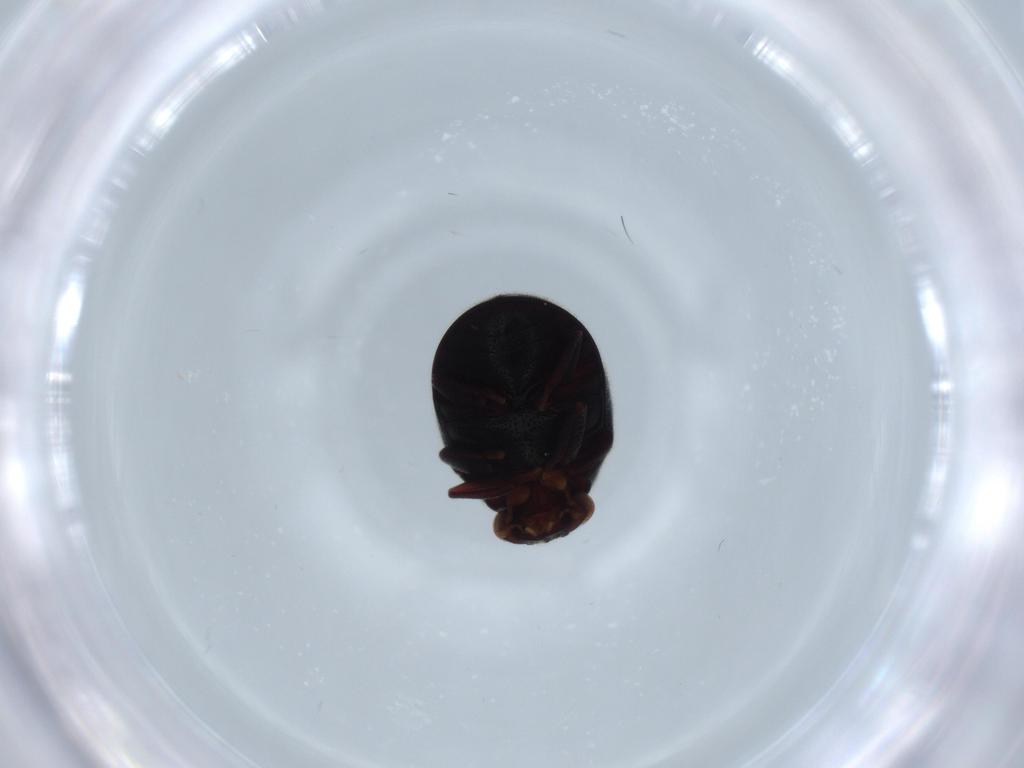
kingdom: Animalia
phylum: Arthropoda
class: Insecta
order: Coleoptera
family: Ptinidae
